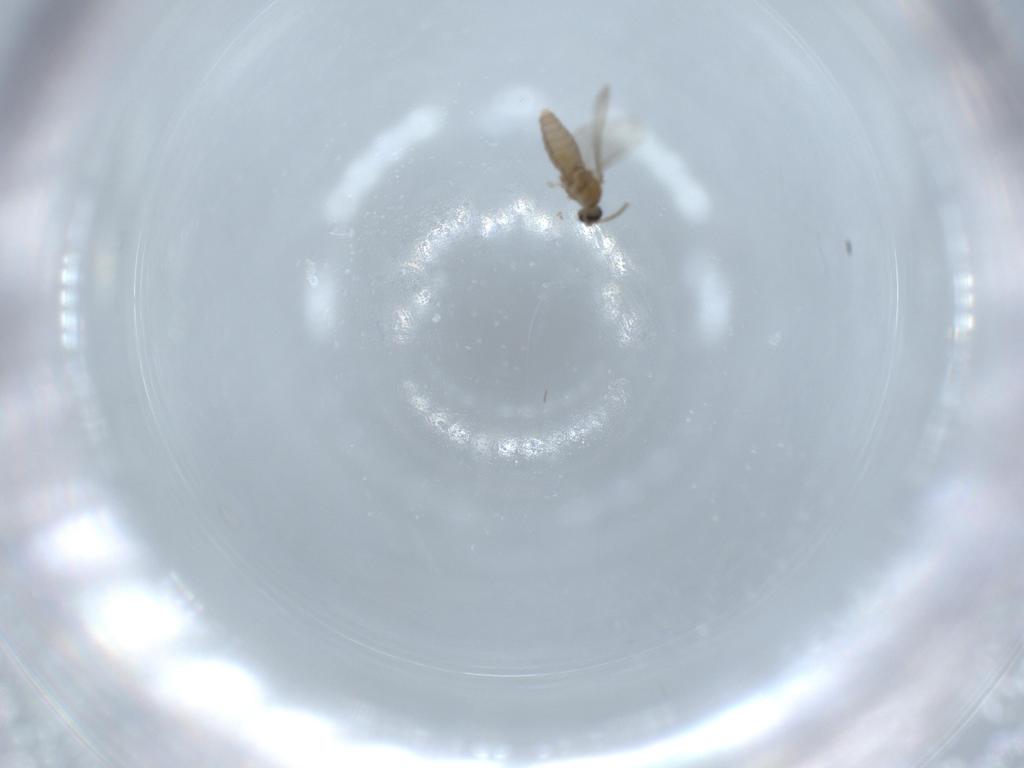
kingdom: Animalia
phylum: Arthropoda
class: Insecta
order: Diptera
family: Cecidomyiidae
